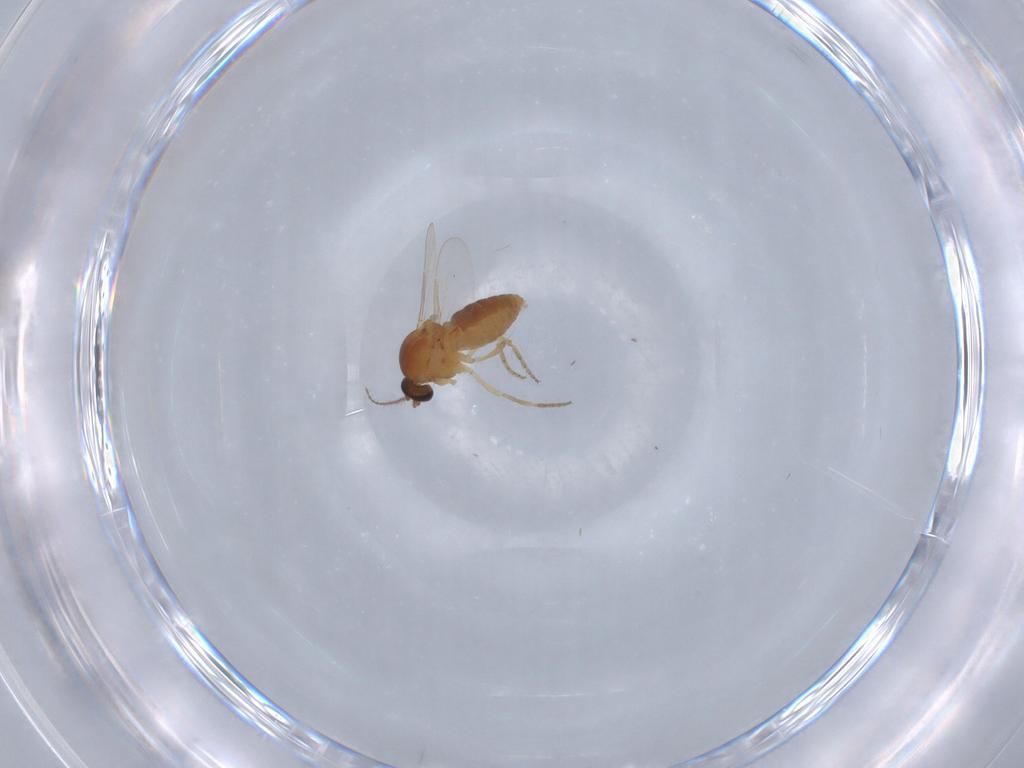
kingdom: Animalia
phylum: Arthropoda
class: Insecta
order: Diptera
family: Ceratopogonidae
